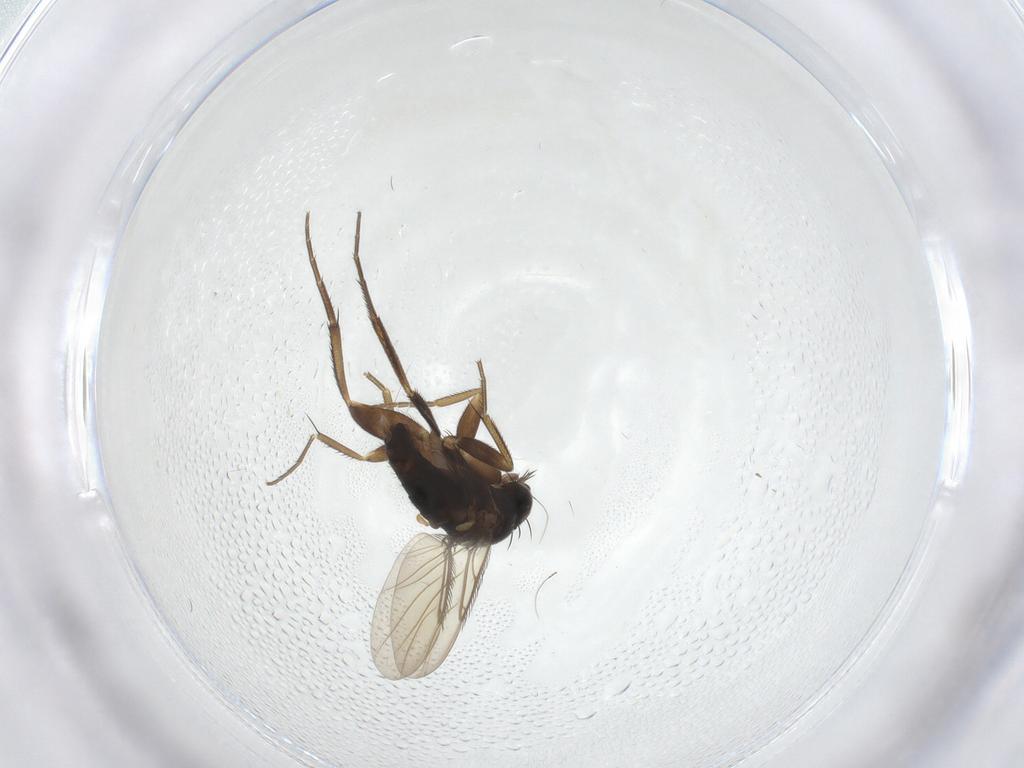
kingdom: Animalia
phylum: Arthropoda
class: Insecta
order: Diptera
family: Phoridae
